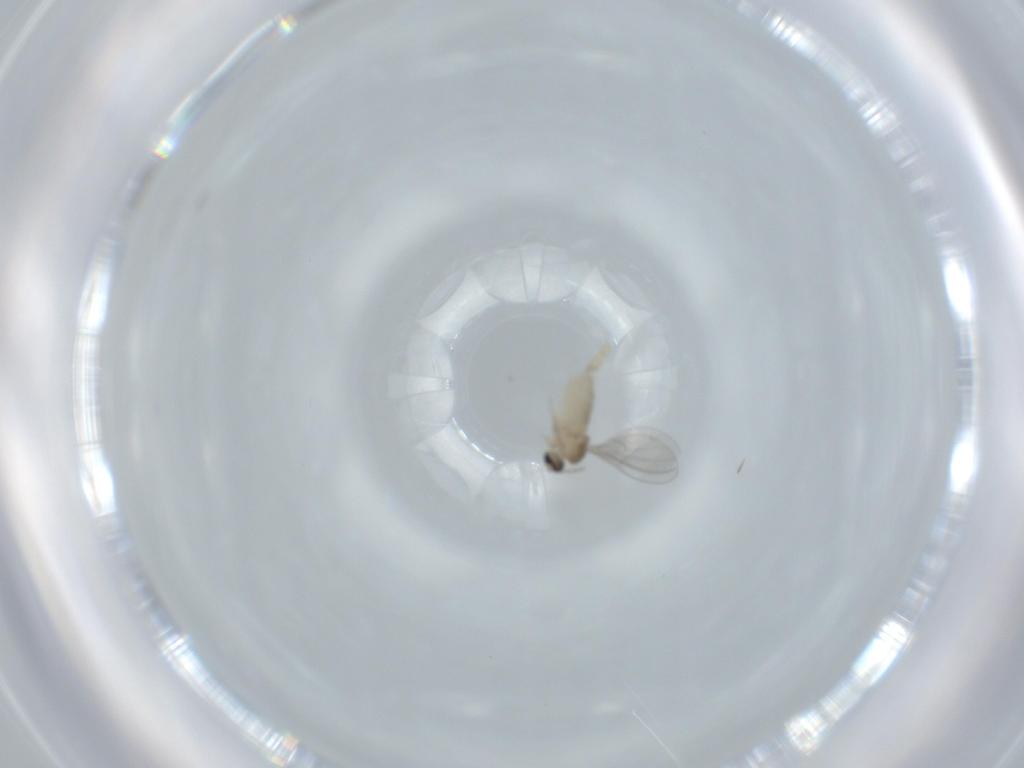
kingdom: Animalia
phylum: Arthropoda
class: Insecta
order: Diptera
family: Cecidomyiidae
